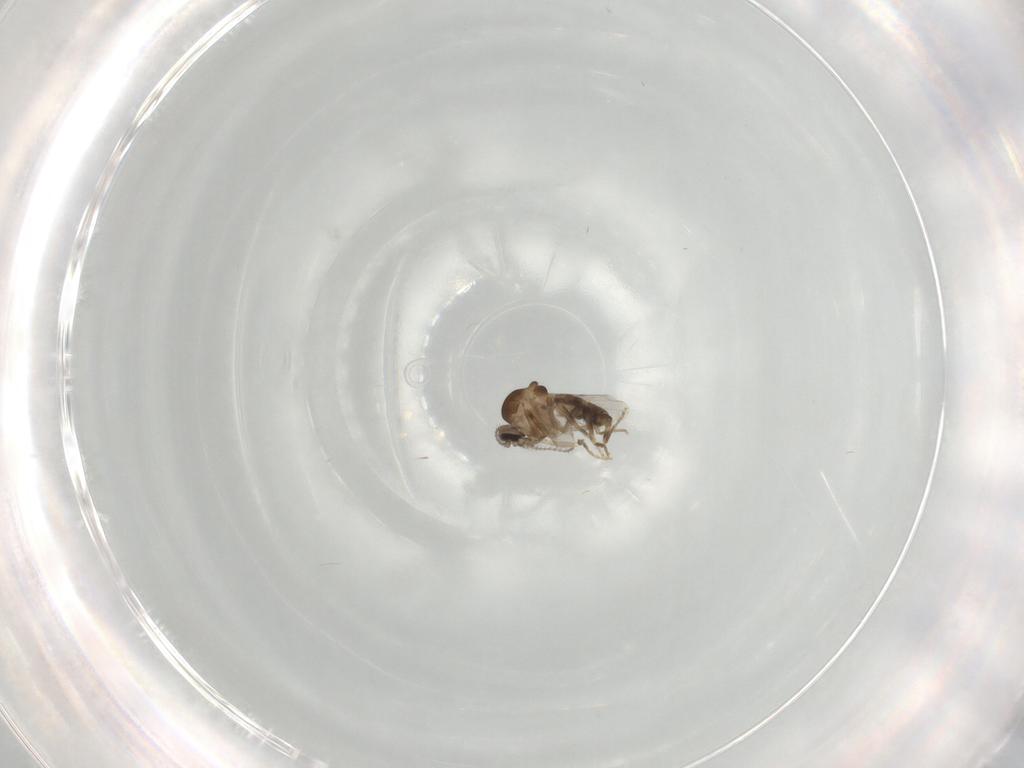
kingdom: Animalia
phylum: Arthropoda
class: Insecta
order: Diptera
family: Ceratopogonidae
